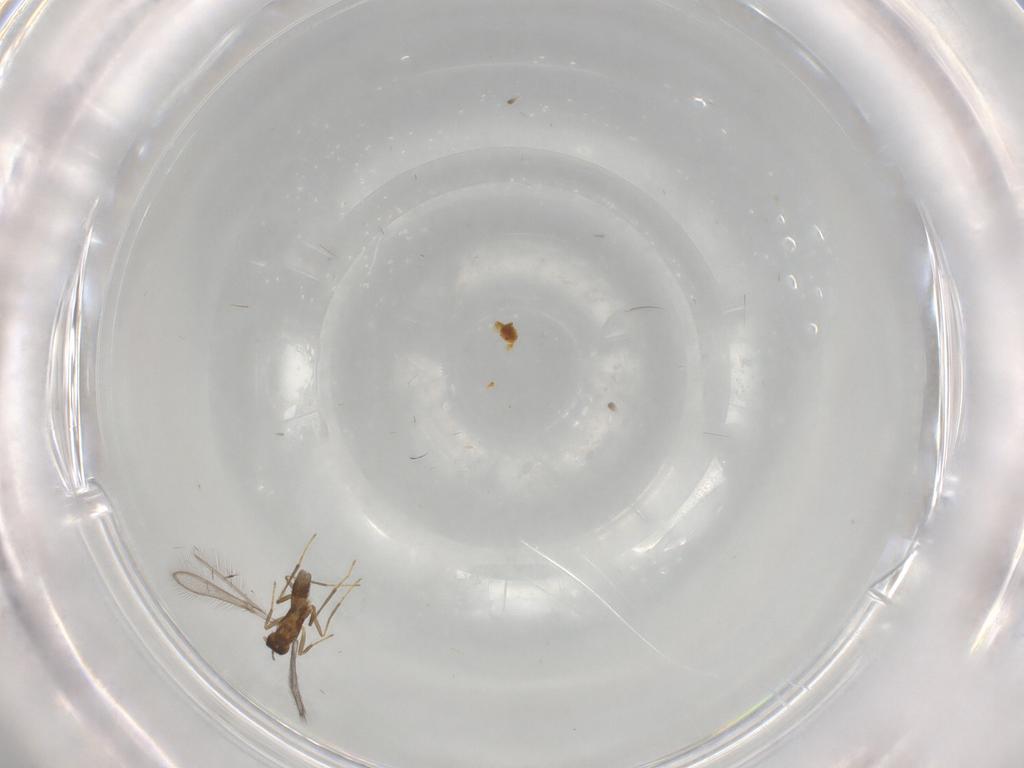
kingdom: Animalia
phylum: Arthropoda
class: Insecta
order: Hymenoptera
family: Mymaridae
